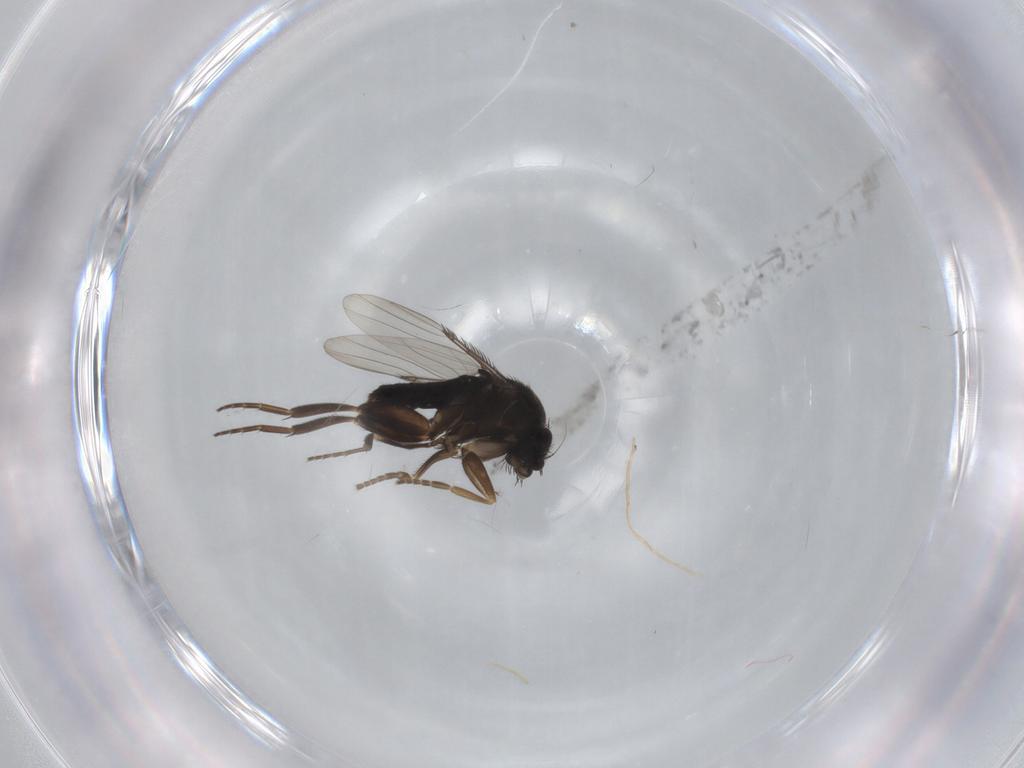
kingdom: Animalia
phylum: Arthropoda
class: Insecta
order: Diptera
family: Phoridae
